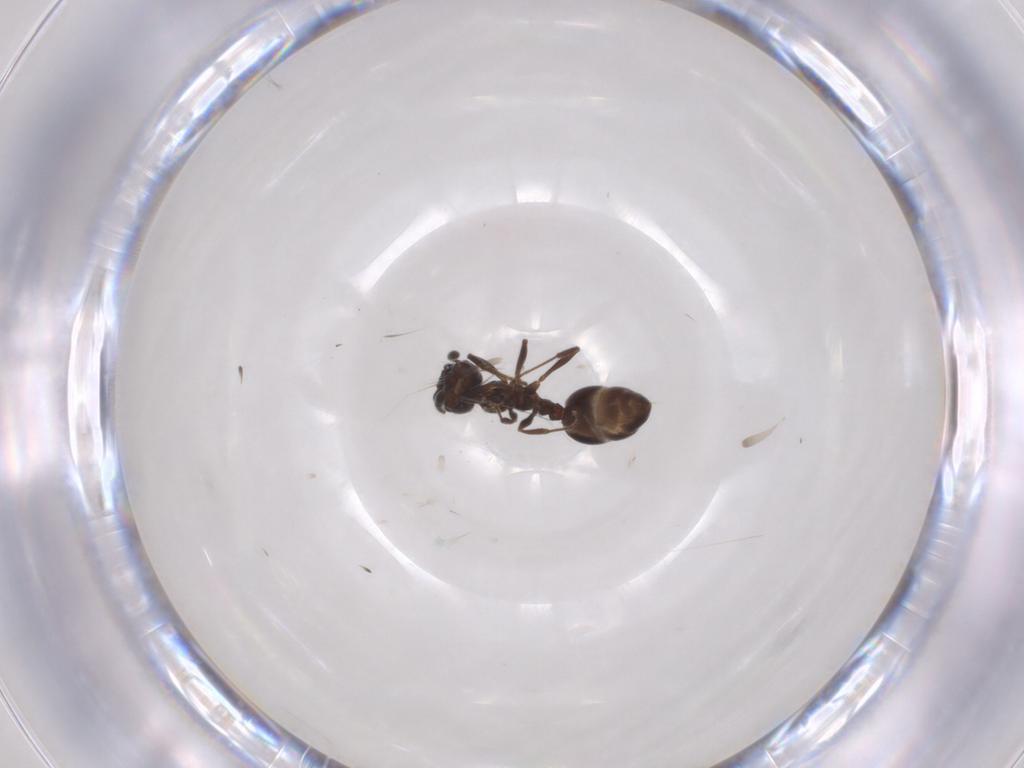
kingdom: Animalia
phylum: Arthropoda
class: Insecta
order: Hymenoptera
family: Formicidae
